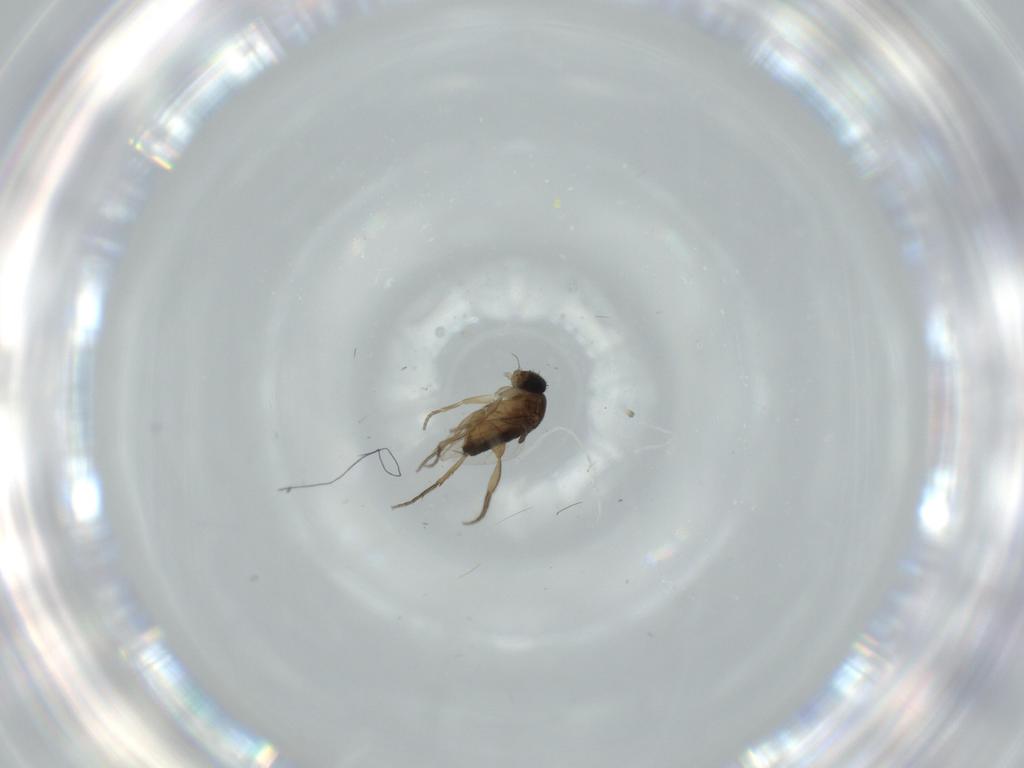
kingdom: Animalia
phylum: Arthropoda
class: Insecta
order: Diptera
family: Phoridae
